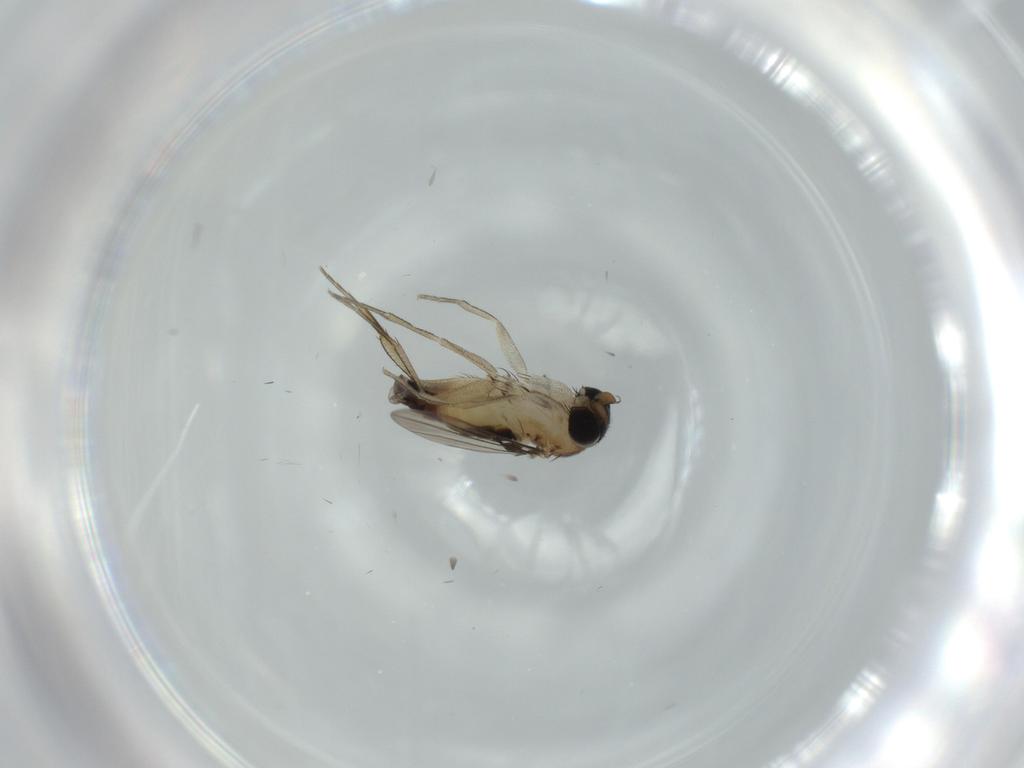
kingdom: Animalia
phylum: Arthropoda
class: Insecta
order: Diptera
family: Phoridae
